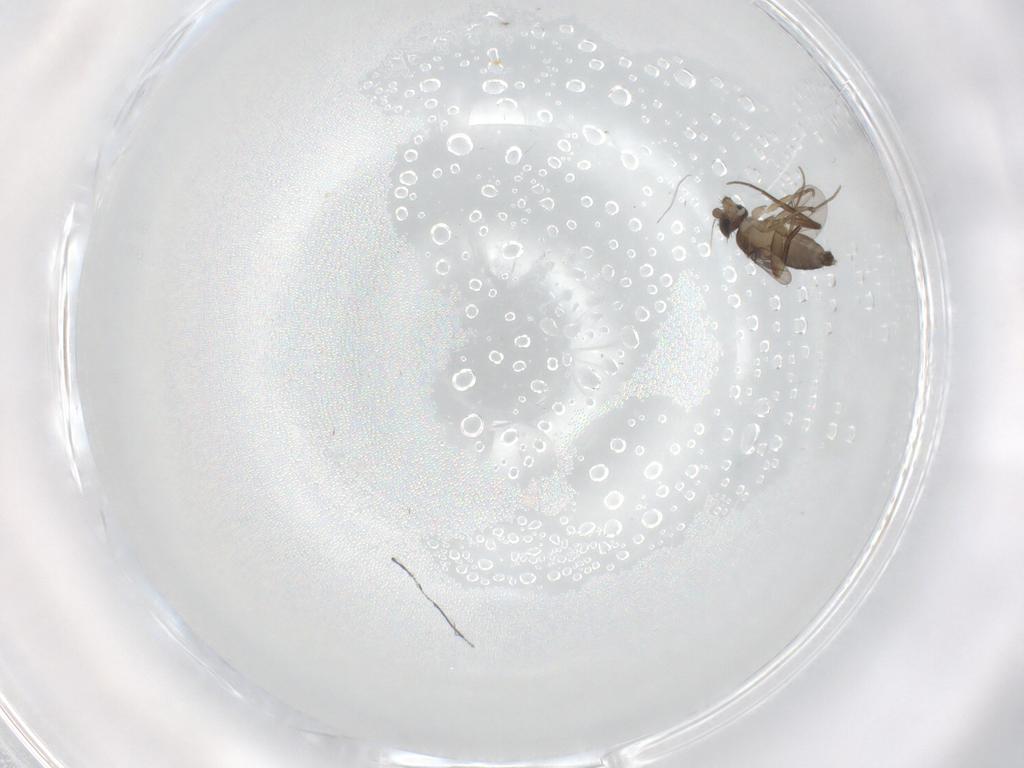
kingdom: Animalia
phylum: Arthropoda
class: Insecta
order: Diptera
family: Phoridae
